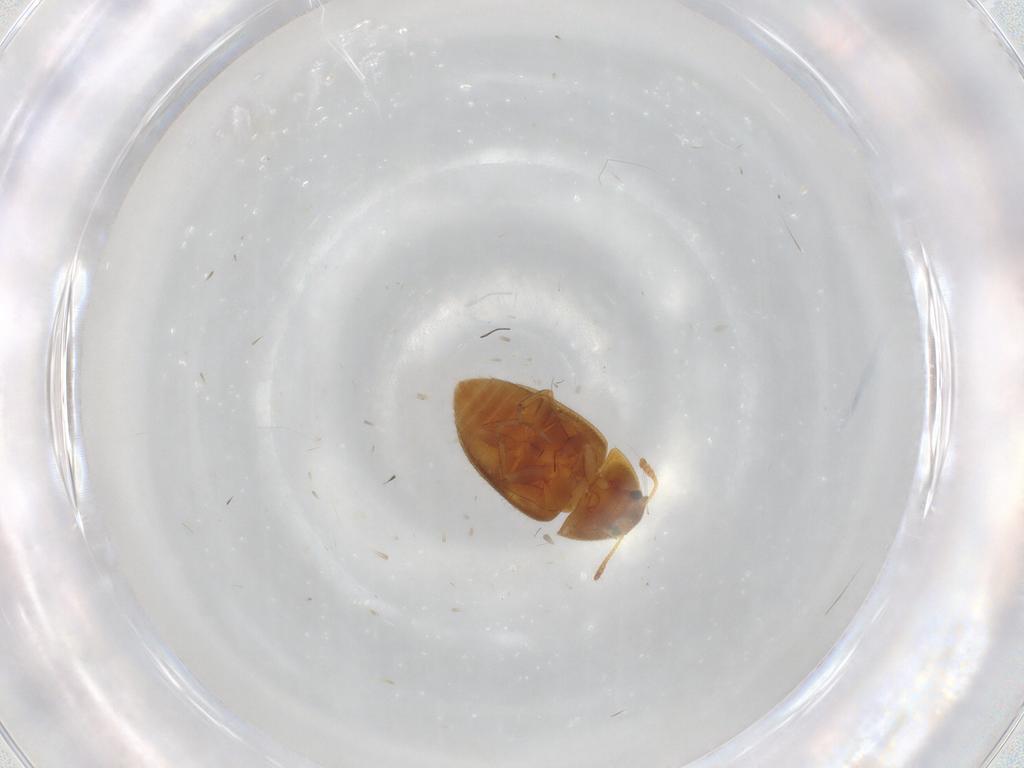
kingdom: Animalia
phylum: Arthropoda
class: Insecta
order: Coleoptera
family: Mycetophagidae
